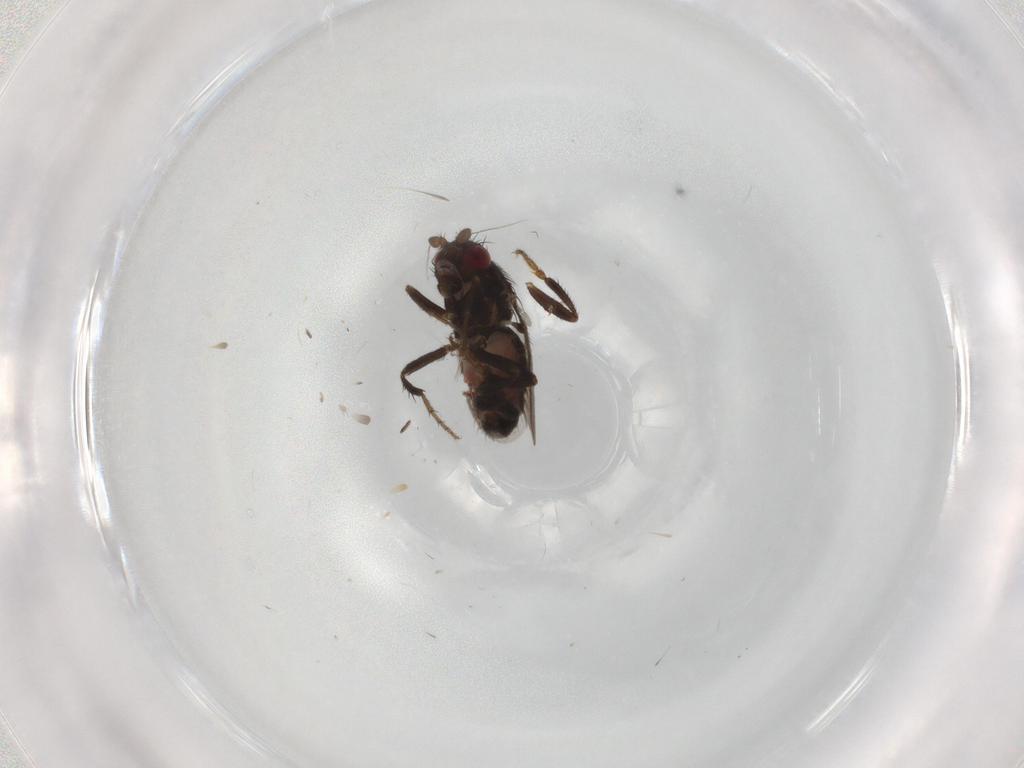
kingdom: Animalia
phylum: Arthropoda
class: Insecta
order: Diptera
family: Sphaeroceridae
